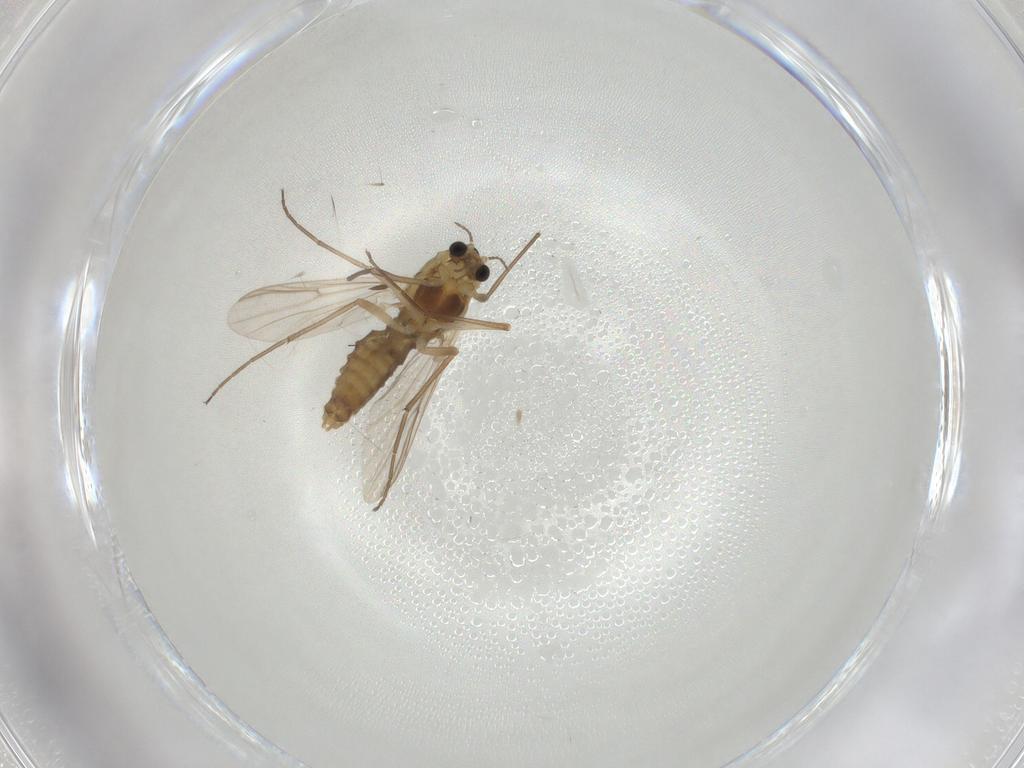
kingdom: Animalia
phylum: Arthropoda
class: Insecta
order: Diptera
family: Chironomidae
